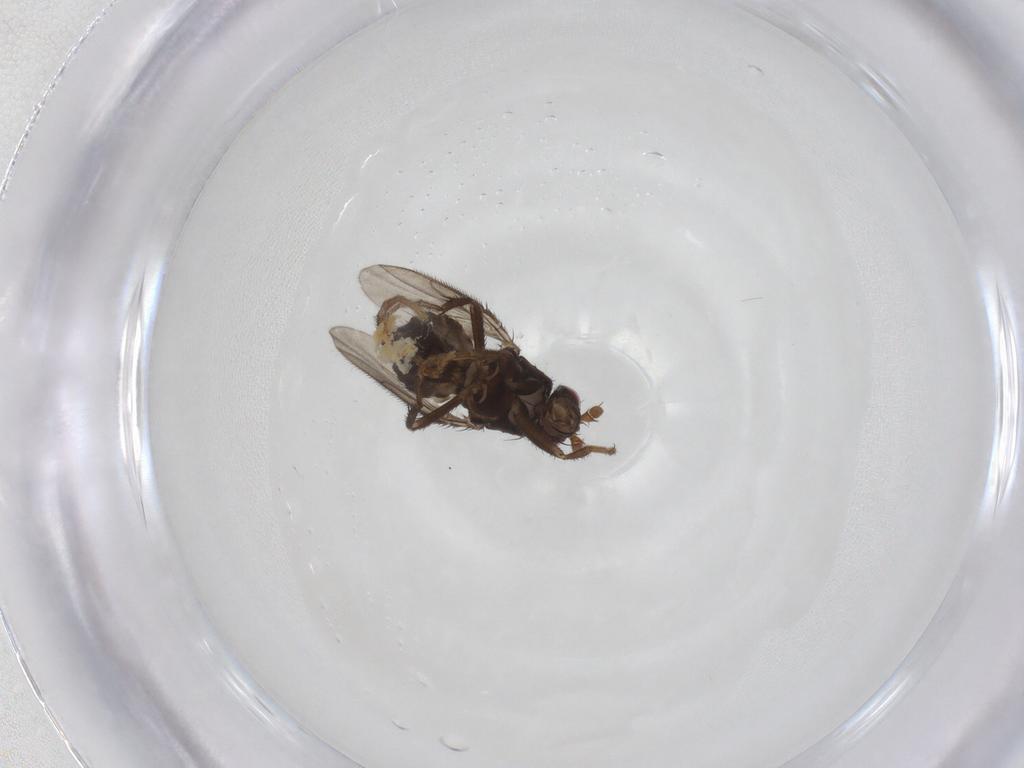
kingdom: Animalia
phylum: Arthropoda
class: Insecta
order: Diptera
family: Sphaeroceridae
